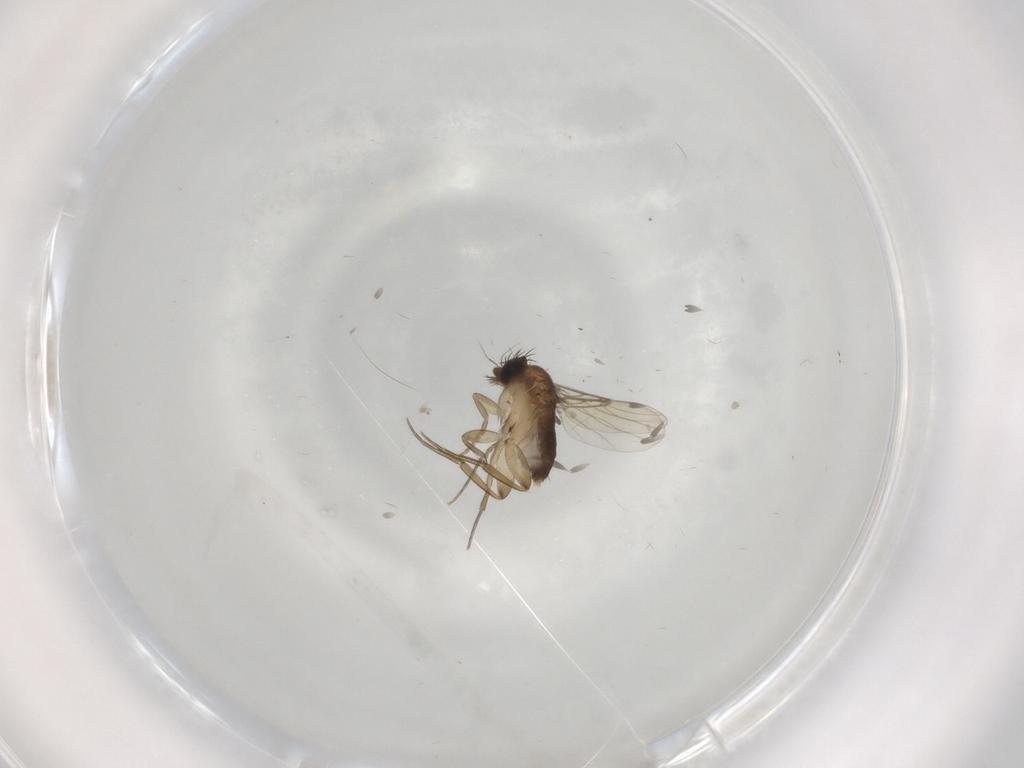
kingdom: Animalia
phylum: Arthropoda
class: Insecta
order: Diptera
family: Phoridae
